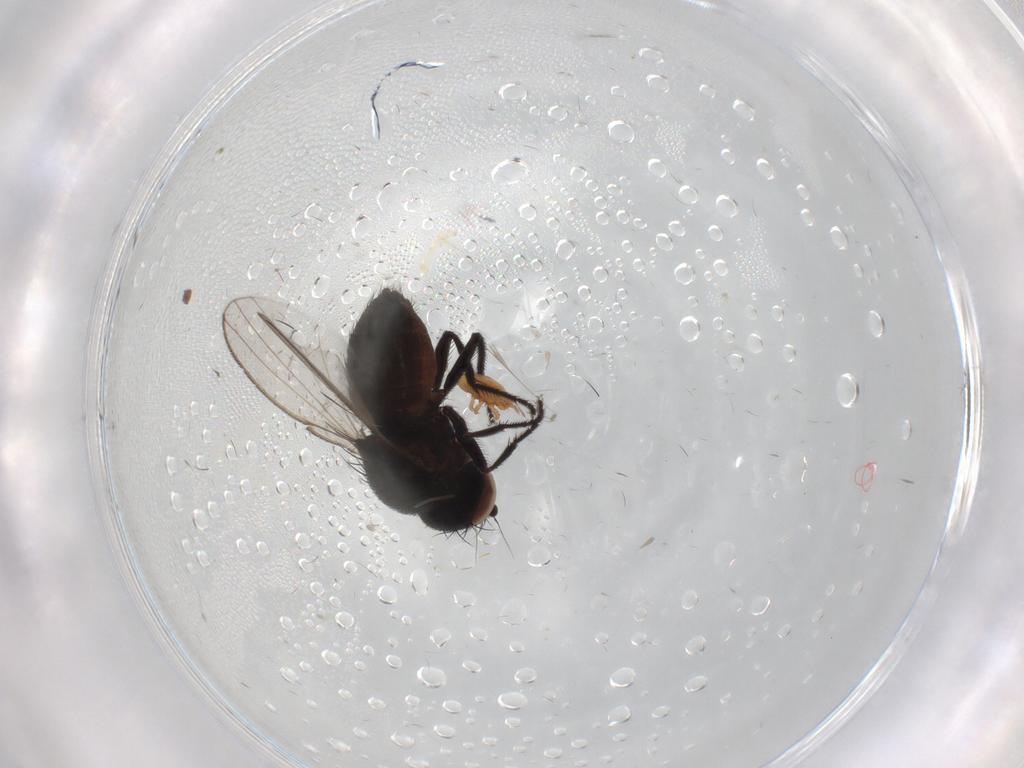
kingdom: Animalia
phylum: Arthropoda
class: Insecta
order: Diptera
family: Milichiidae
